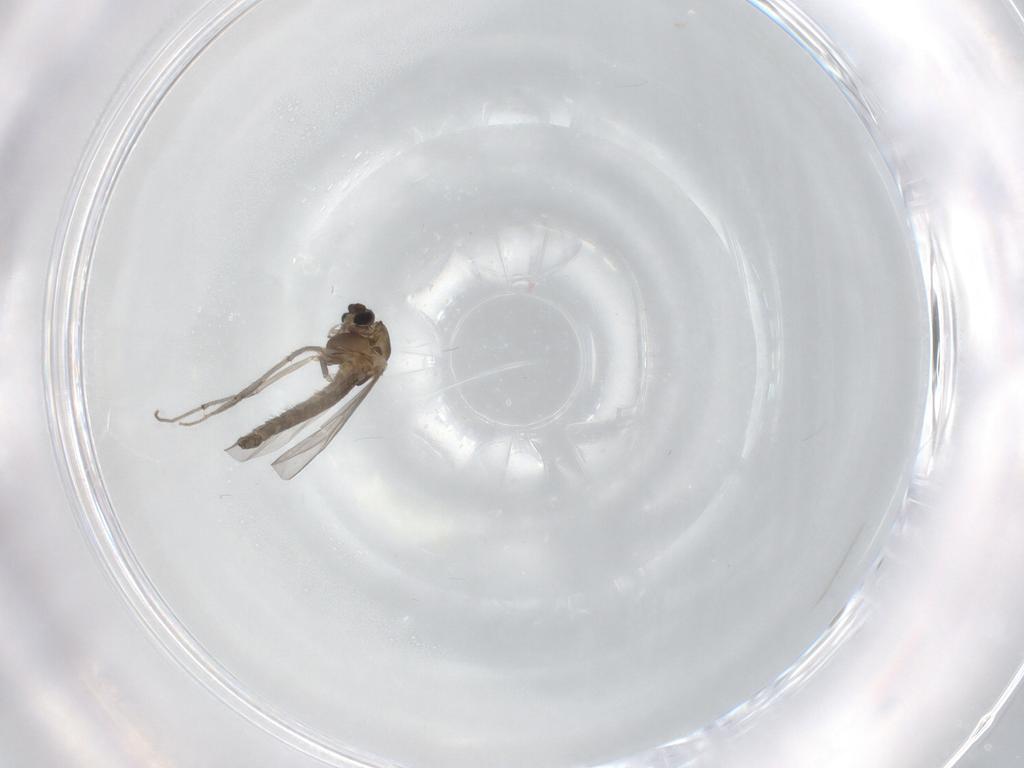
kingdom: Animalia
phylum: Arthropoda
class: Insecta
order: Diptera
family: Chironomidae
